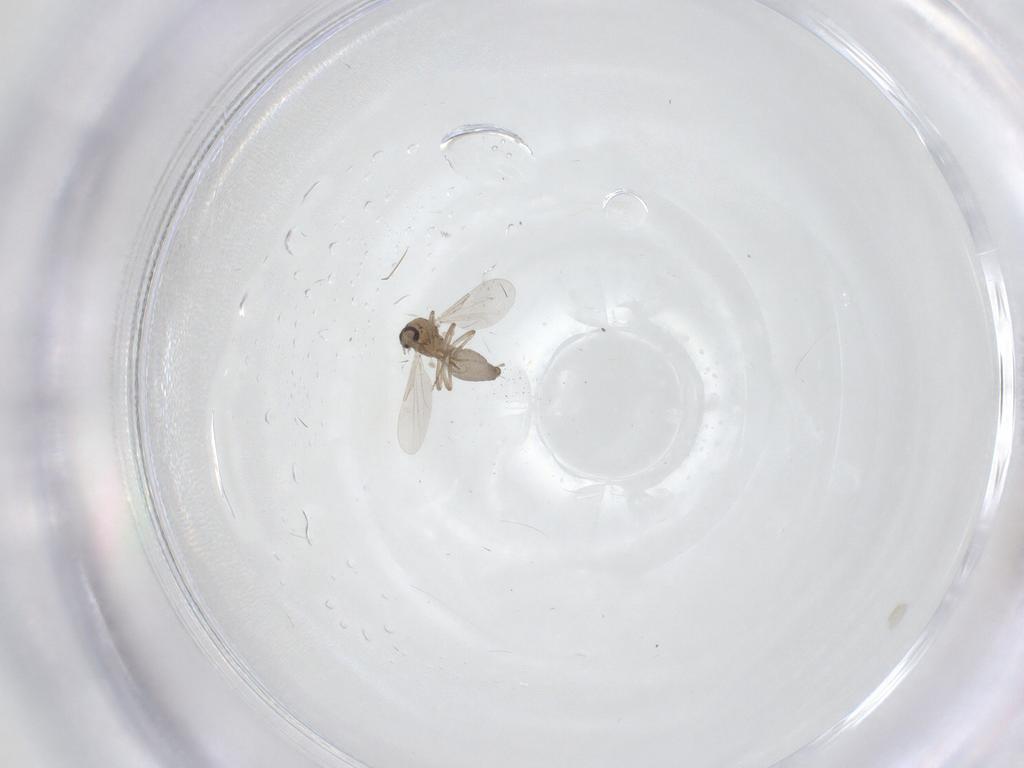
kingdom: Animalia
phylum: Arthropoda
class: Insecta
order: Diptera
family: Ceratopogonidae
